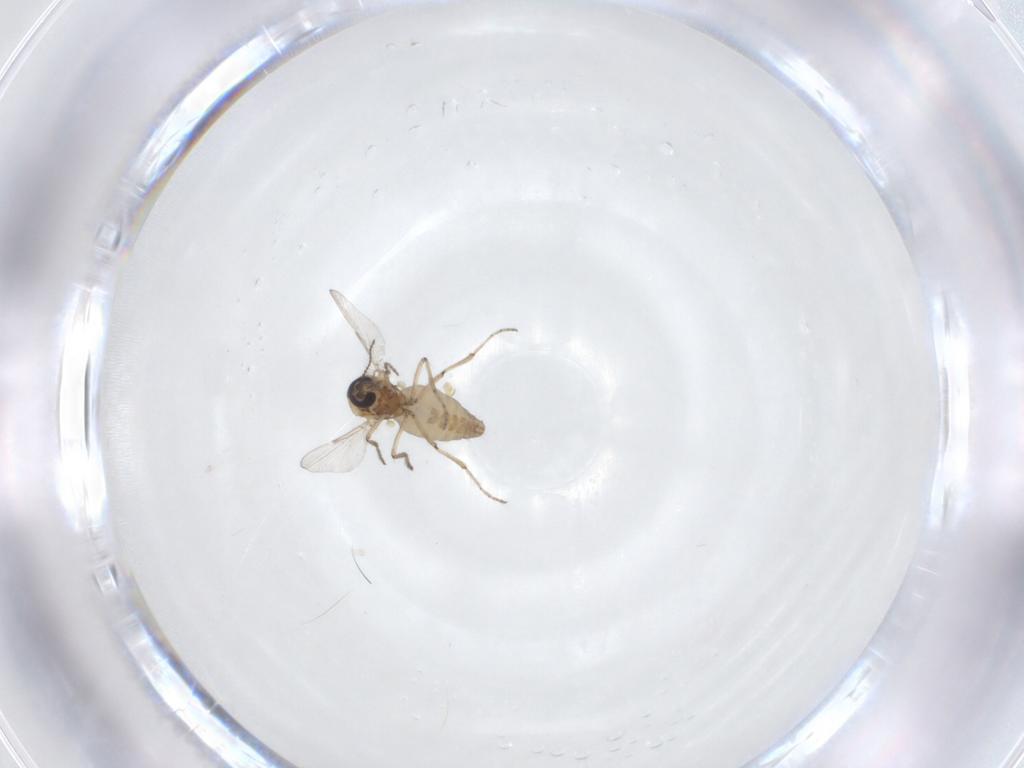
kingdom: Animalia
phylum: Arthropoda
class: Insecta
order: Diptera
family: Ceratopogonidae
